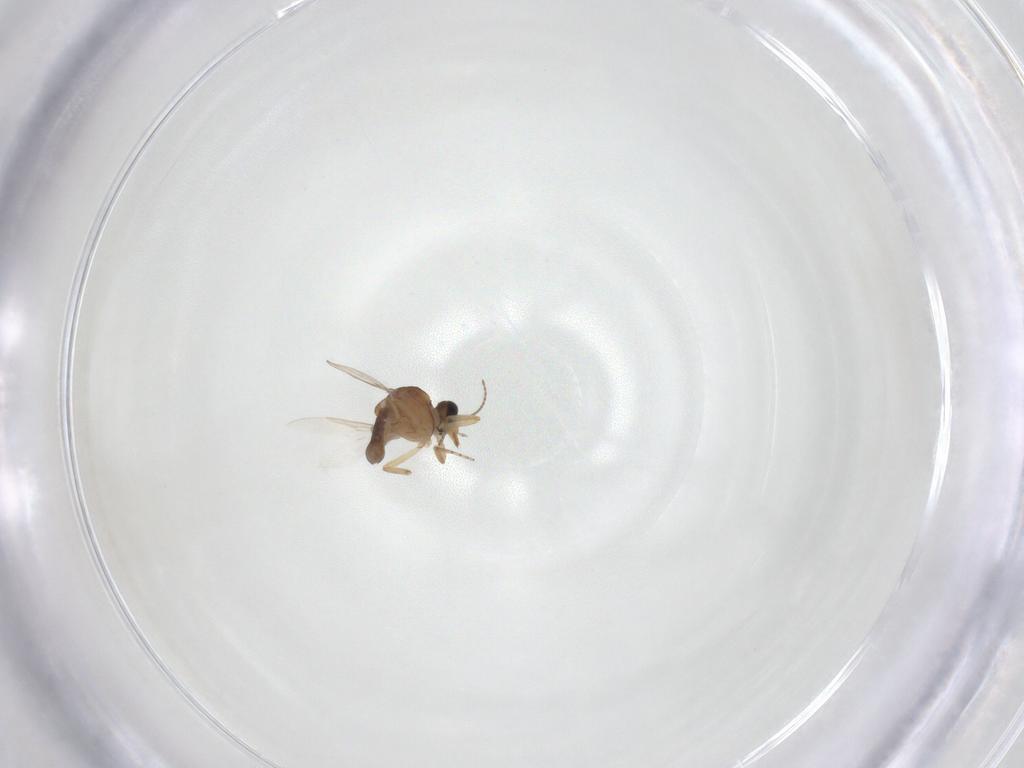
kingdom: Animalia
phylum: Arthropoda
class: Insecta
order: Diptera
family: Ceratopogonidae
